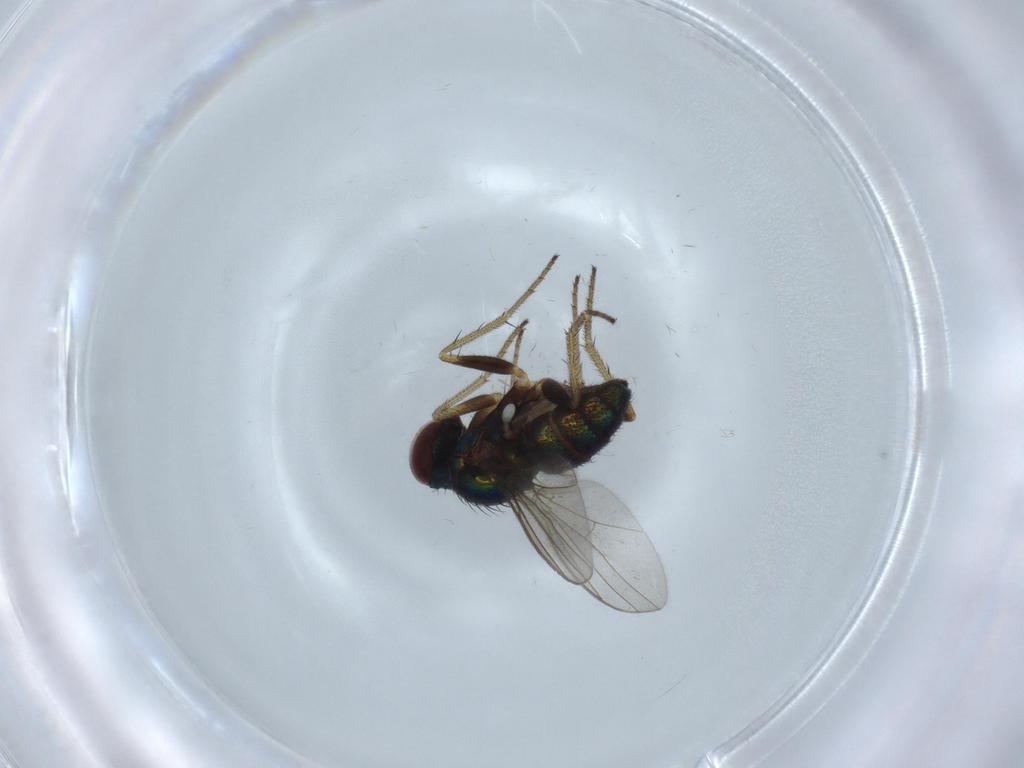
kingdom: Animalia
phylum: Arthropoda
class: Insecta
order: Diptera
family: Dolichopodidae
